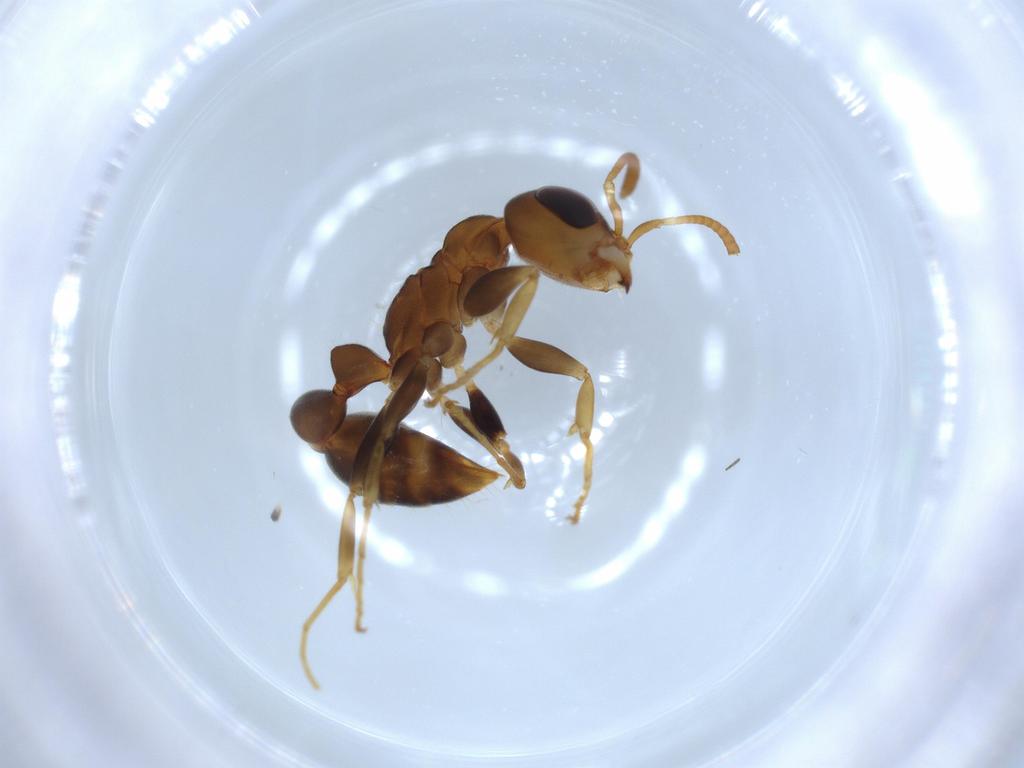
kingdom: Animalia
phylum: Arthropoda
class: Insecta
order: Hymenoptera
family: Formicidae
